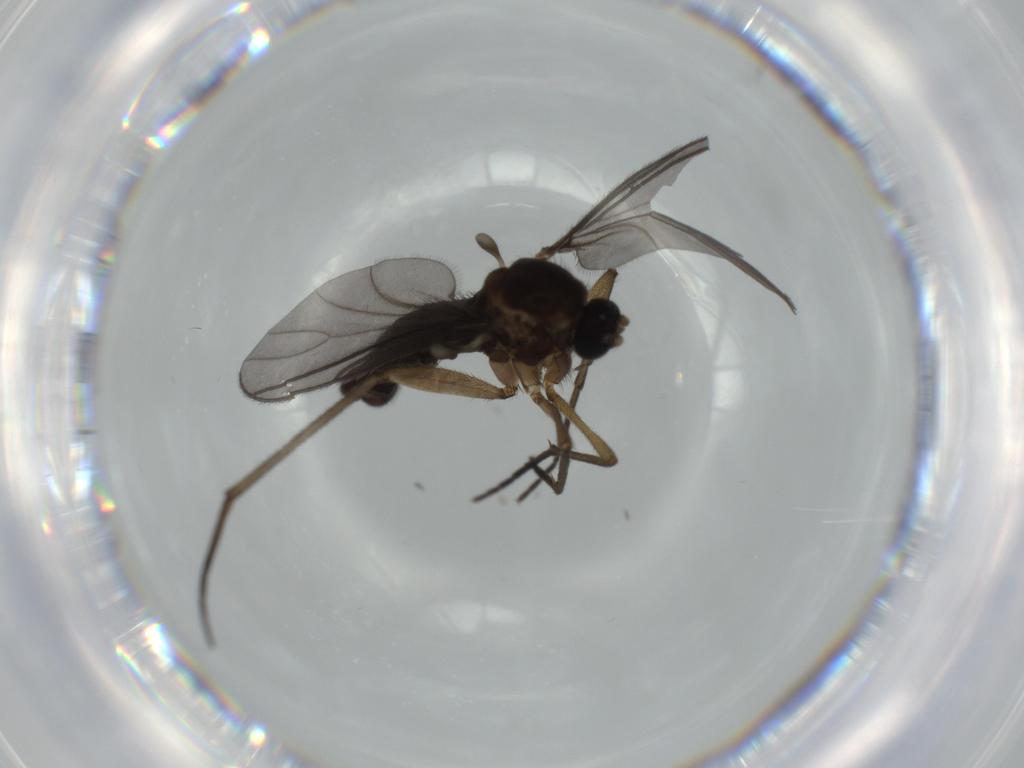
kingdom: Animalia
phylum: Arthropoda
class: Insecta
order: Diptera
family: Sciaridae
